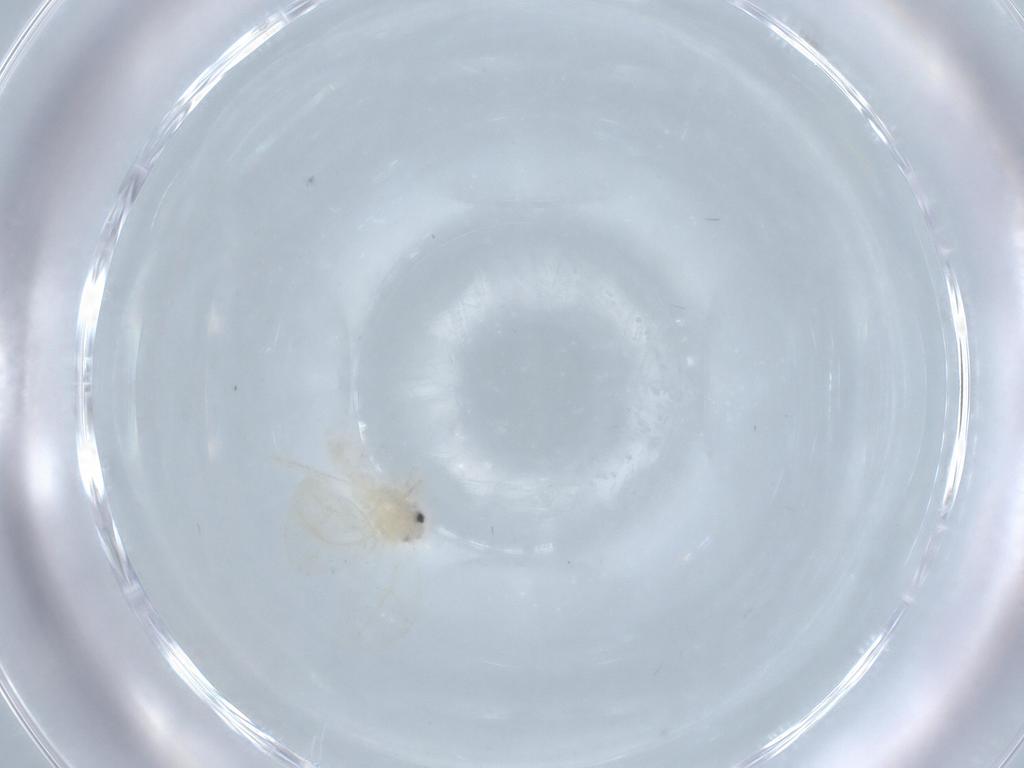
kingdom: Animalia
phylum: Arthropoda
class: Insecta
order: Hemiptera
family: Aleyrodidae
